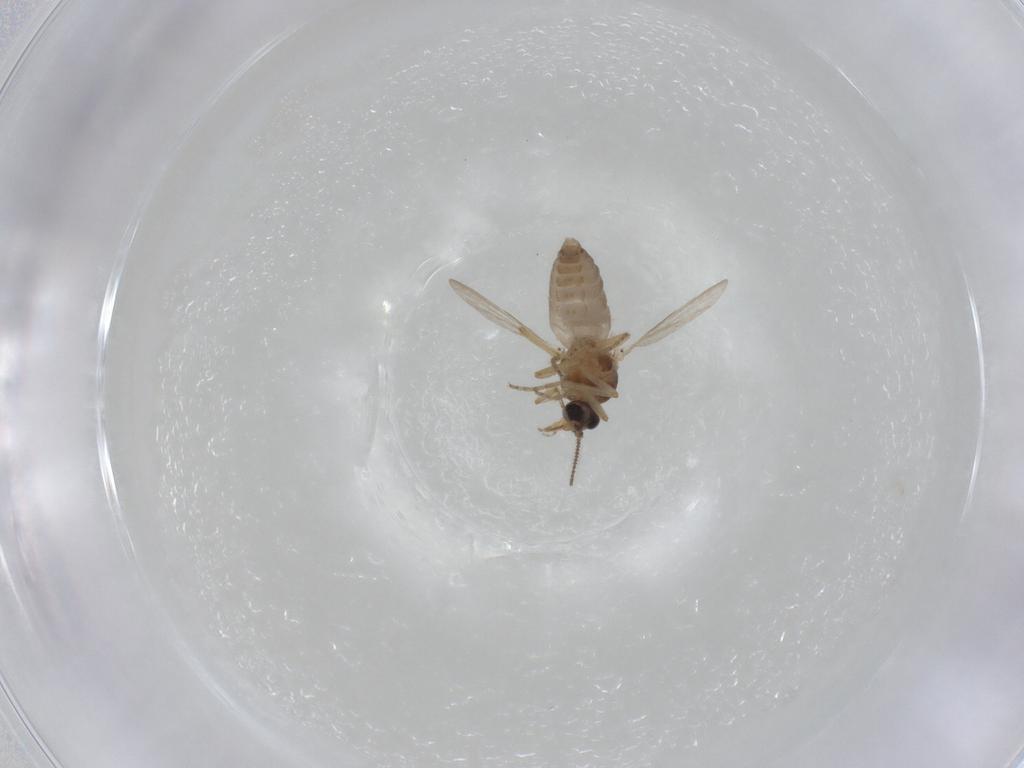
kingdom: Animalia
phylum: Arthropoda
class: Insecta
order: Diptera
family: Ceratopogonidae
